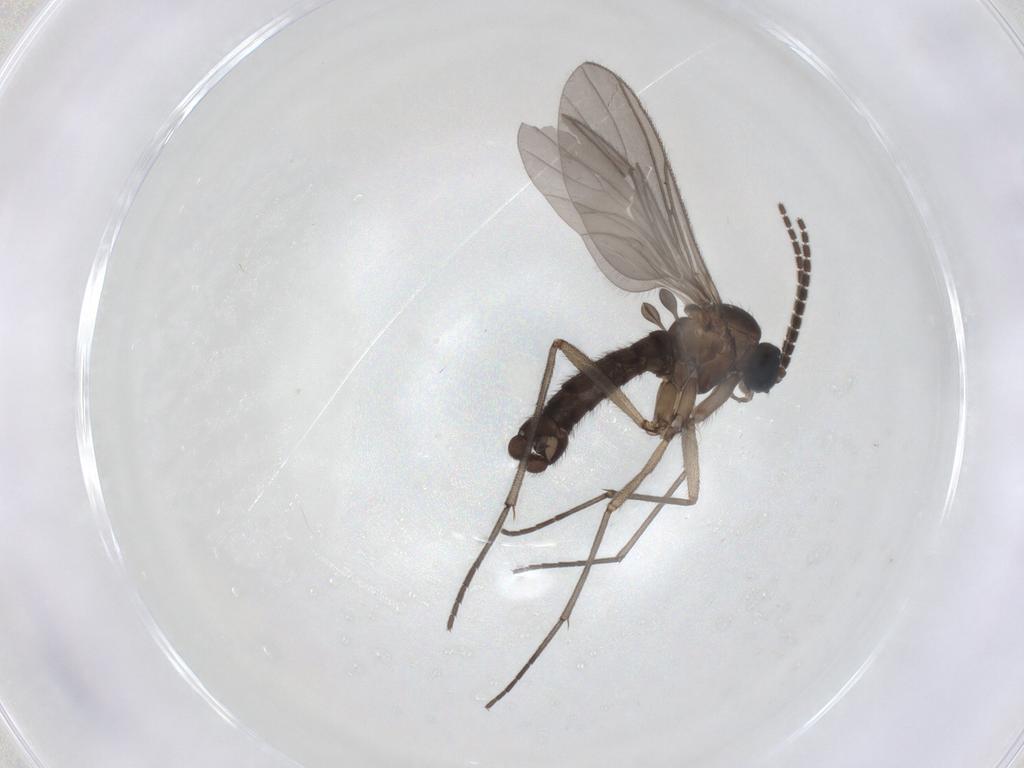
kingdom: Animalia
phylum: Arthropoda
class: Insecta
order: Diptera
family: Sciaridae
